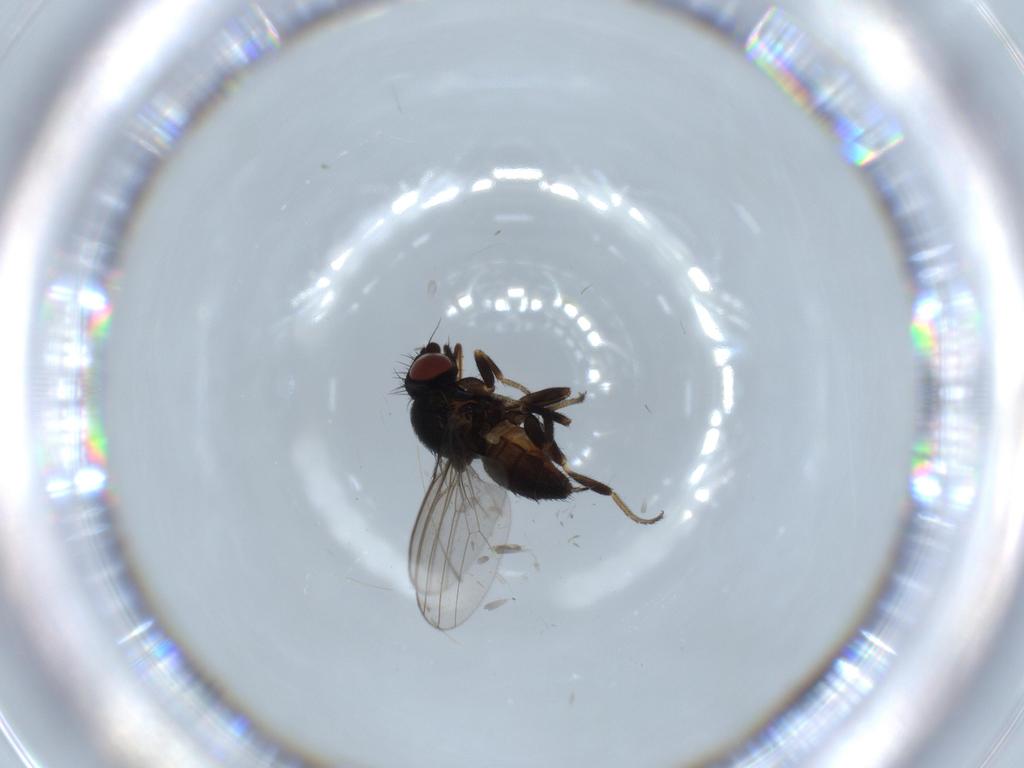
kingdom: Animalia
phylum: Arthropoda
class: Insecta
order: Diptera
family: Milichiidae
